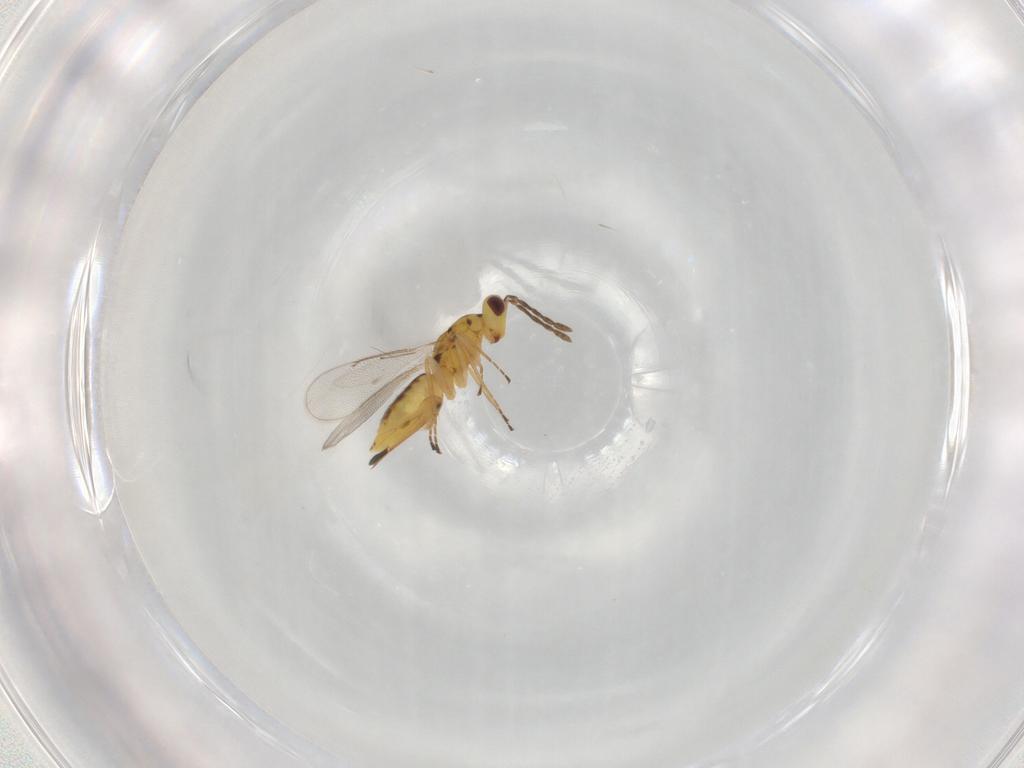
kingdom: Animalia
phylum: Arthropoda
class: Insecta
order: Hymenoptera
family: Eulophidae
